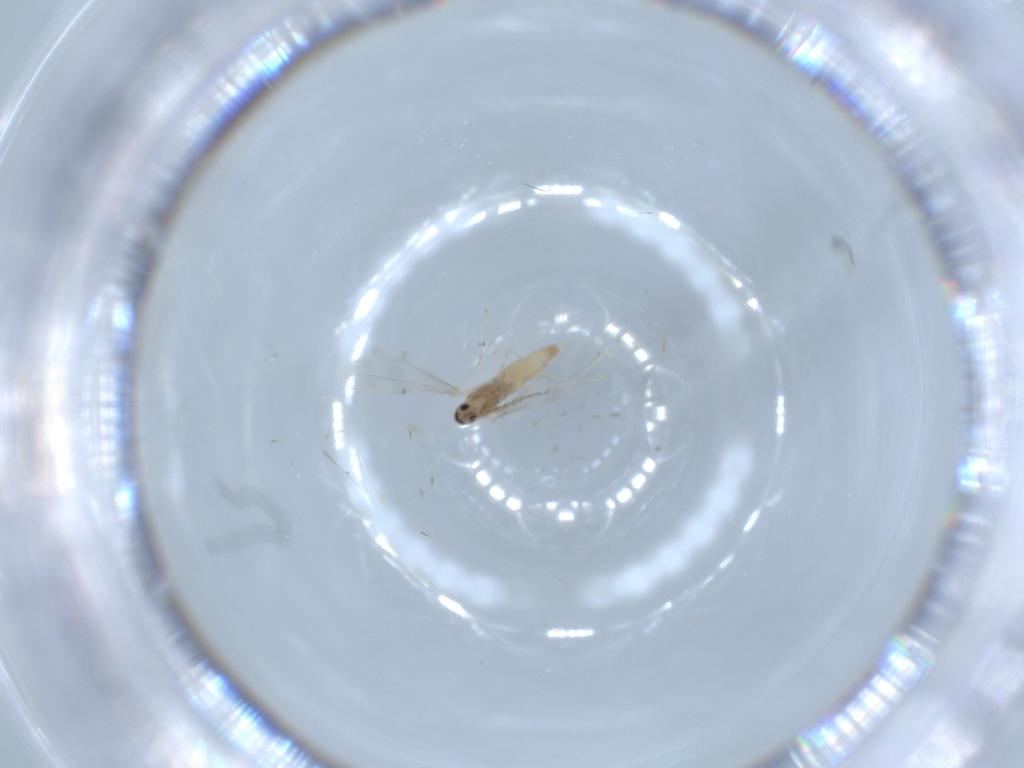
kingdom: Animalia
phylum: Arthropoda
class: Insecta
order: Diptera
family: Cecidomyiidae
